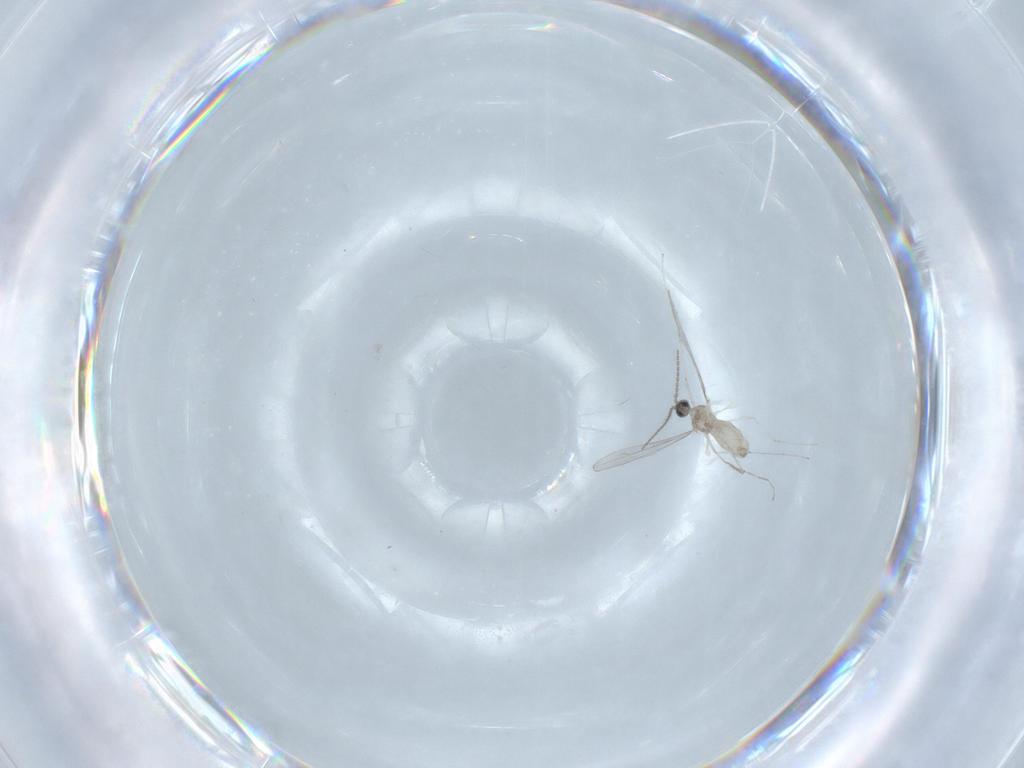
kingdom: Animalia
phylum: Arthropoda
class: Insecta
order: Diptera
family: Cecidomyiidae
